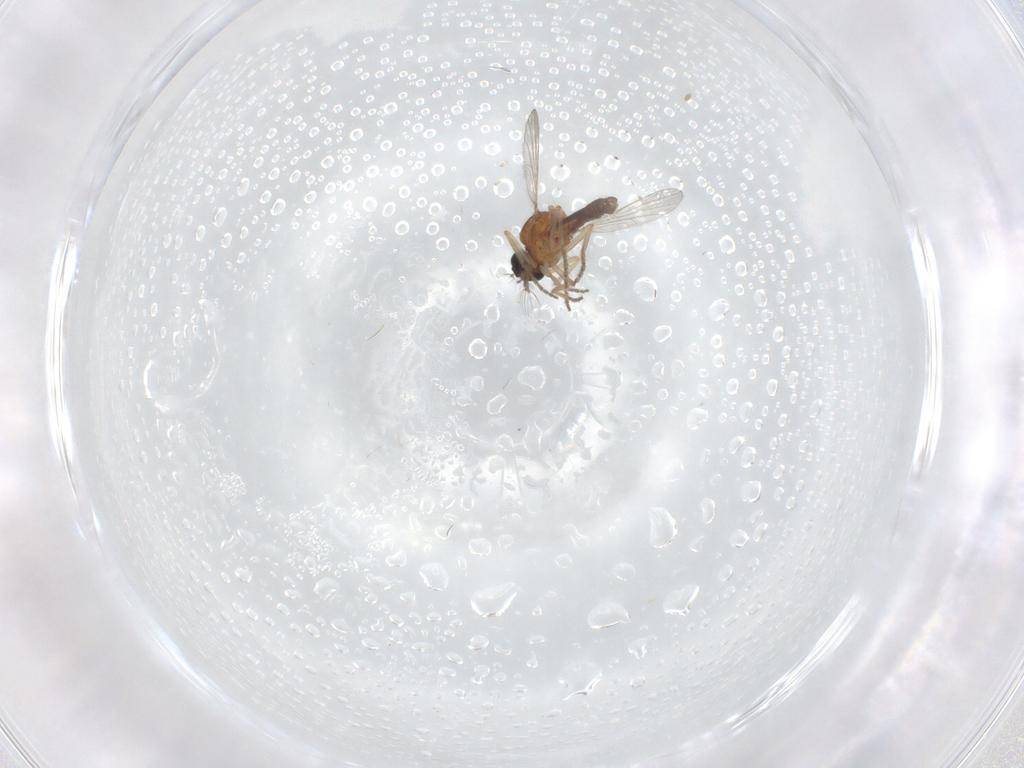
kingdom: Animalia
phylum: Arthropoda
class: Insecta
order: Diptera
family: Ceratopogonidae
